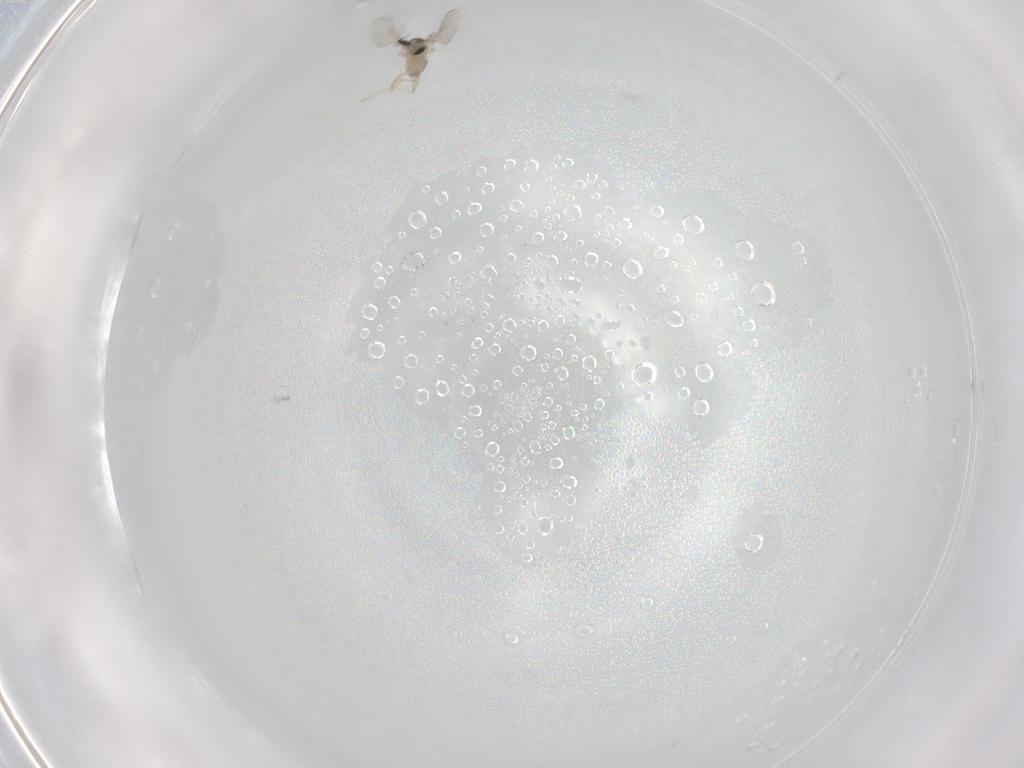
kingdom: Animalia
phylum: Arthropoda
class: Insecta
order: Diptera
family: Cecidomyiidae
